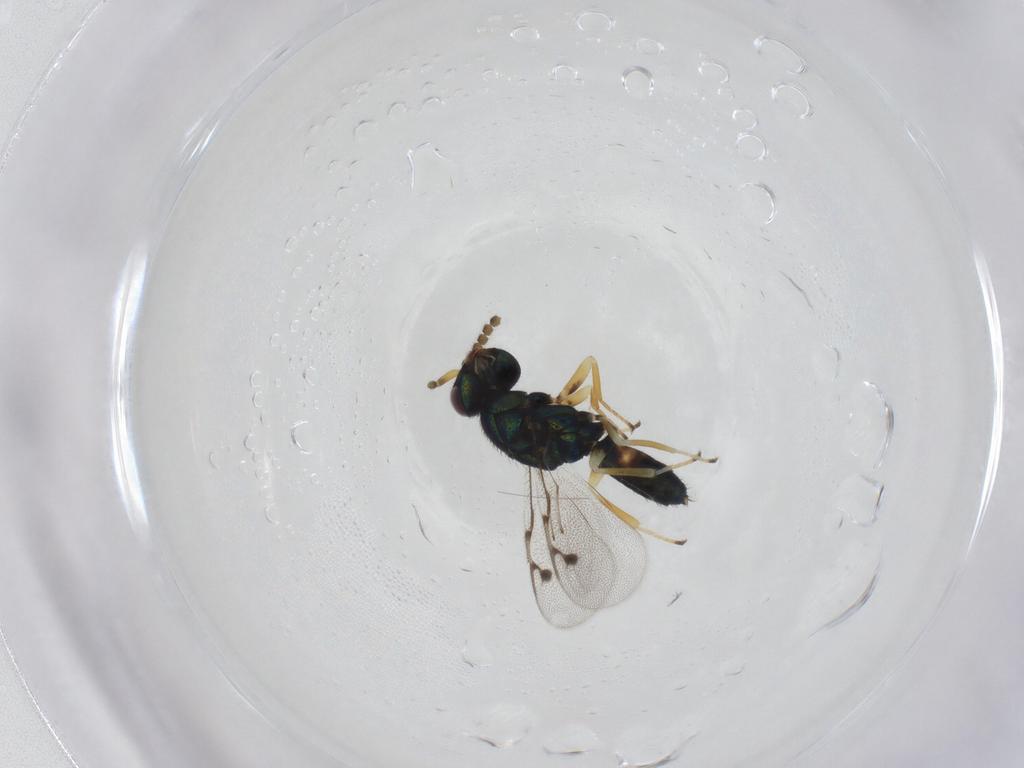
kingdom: Animalia
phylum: Arthropoda
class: Insecta
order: Hymenoptera
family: Pirenidae
